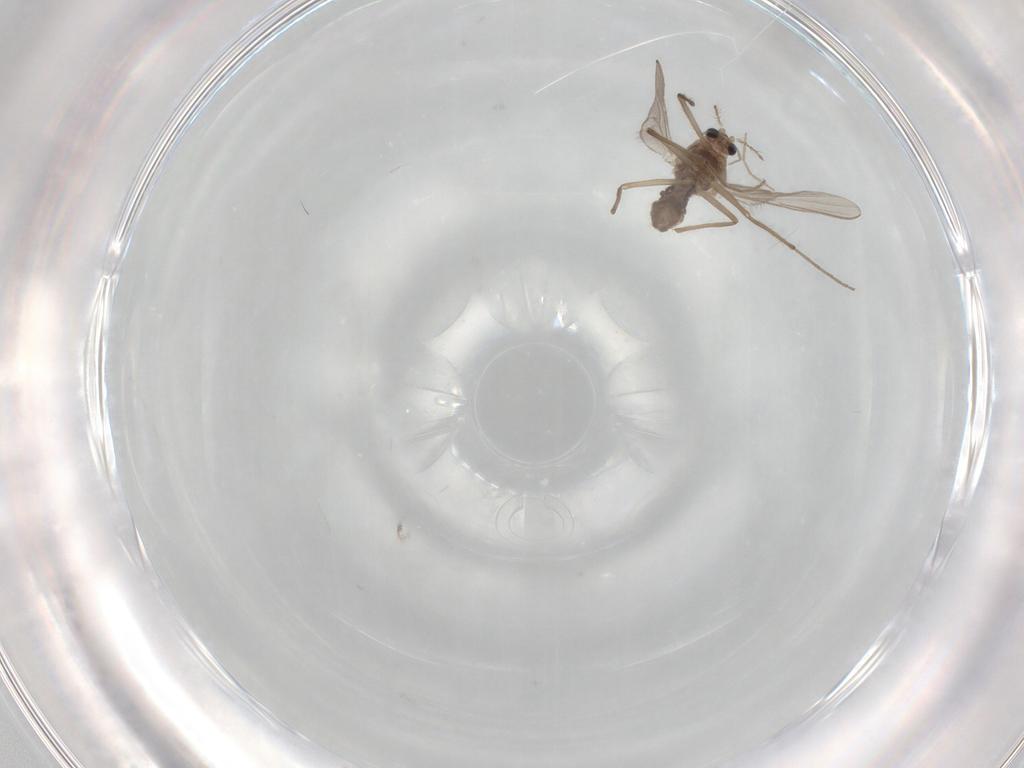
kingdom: Animalia
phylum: Arthropoda
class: Insecta
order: Diptera
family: Chironomidae
